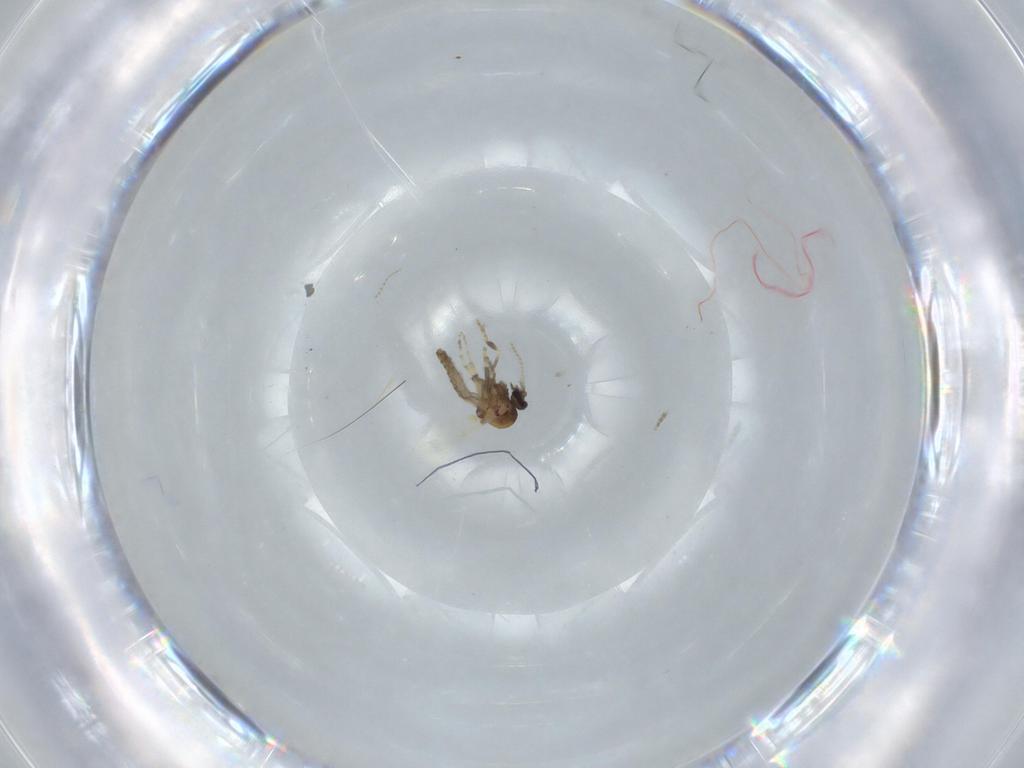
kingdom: Animalia
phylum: Arthropoda
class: Insecta
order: Diptera
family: Ceratopogonidae
